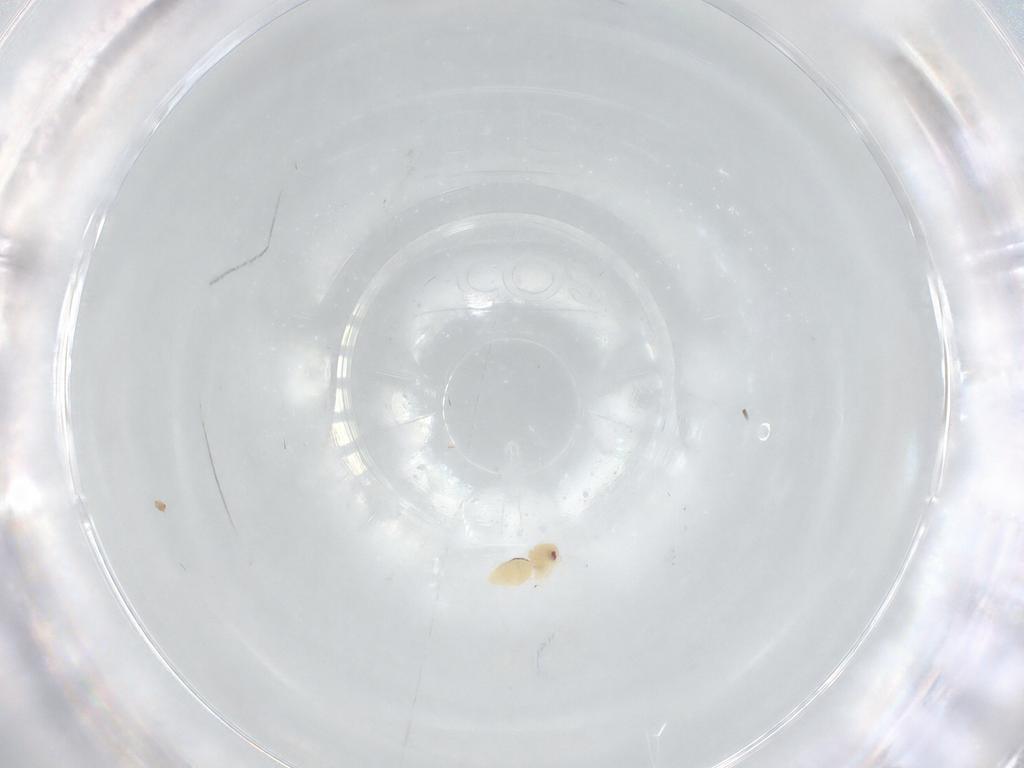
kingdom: Animalia
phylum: Arthropoda
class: Insecta
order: Hemiptera
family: Aleyrodidae
